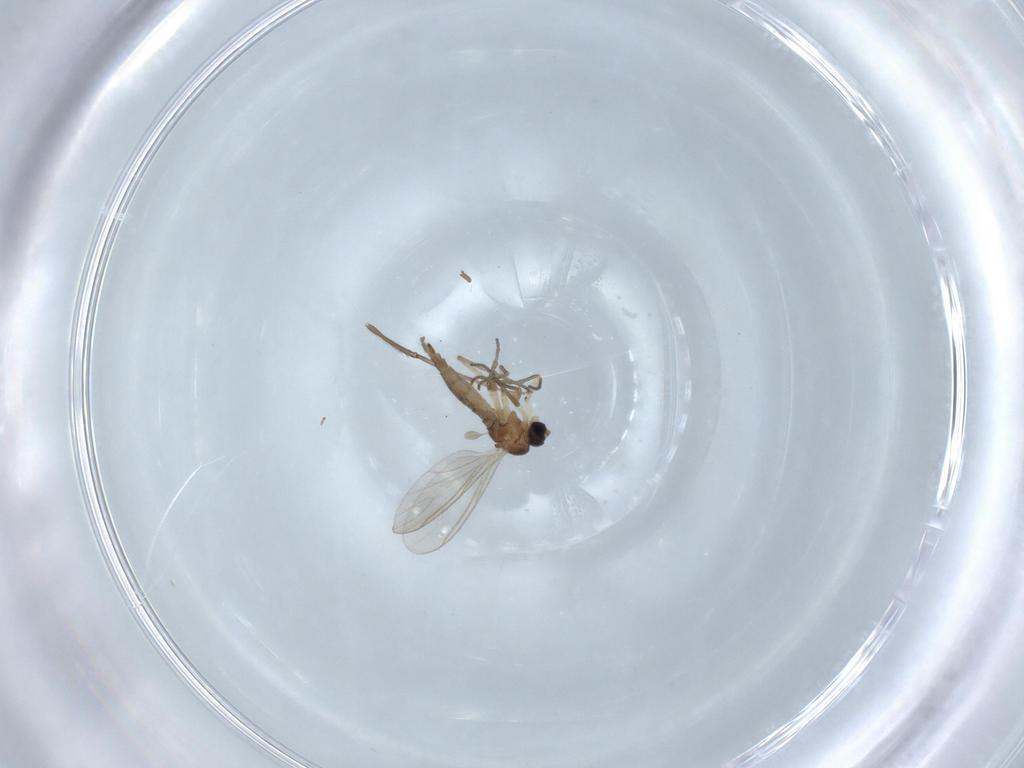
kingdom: Animalia
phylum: Arthropoda
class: Insecta
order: Diptera
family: Sciaridae
